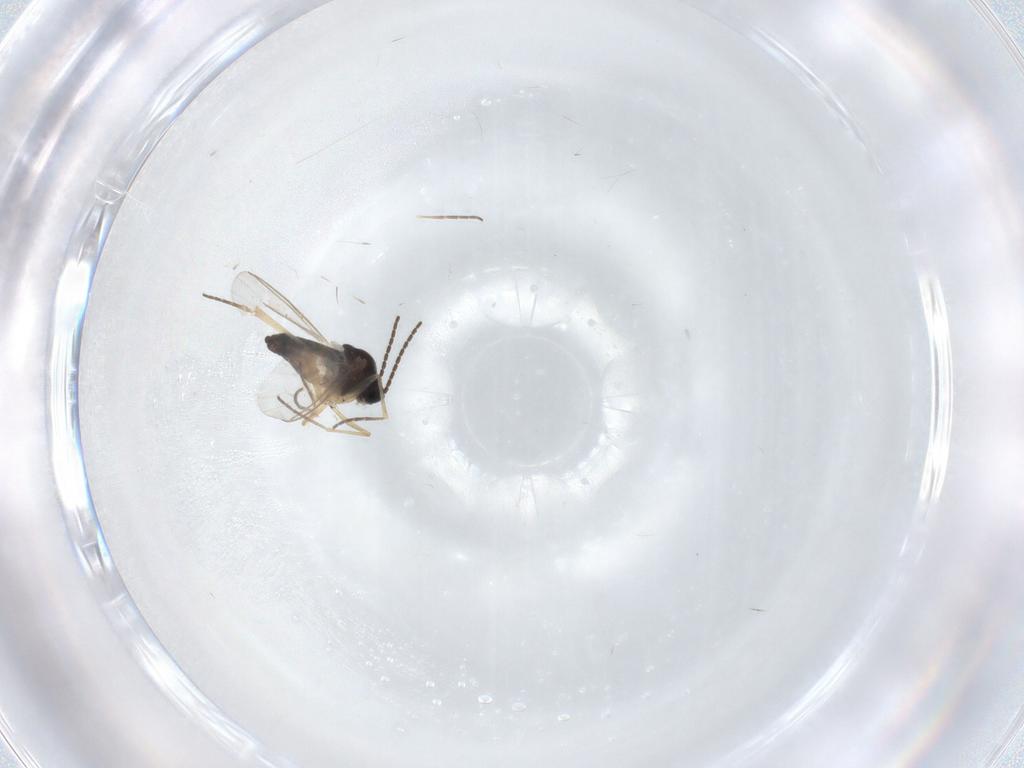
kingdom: Animalia
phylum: Arthropoda
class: Insecta
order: Diptera
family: Sciaridae
